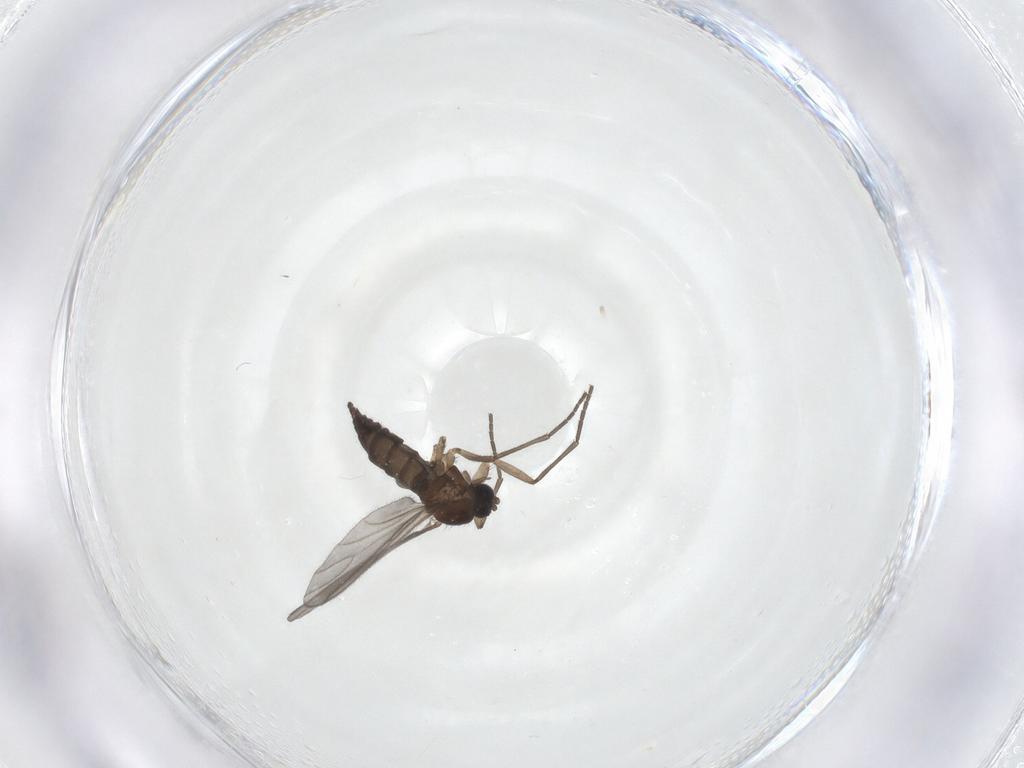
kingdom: Animalia
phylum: Arthropoda
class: Insecta
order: Diptera
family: Sciaridae
